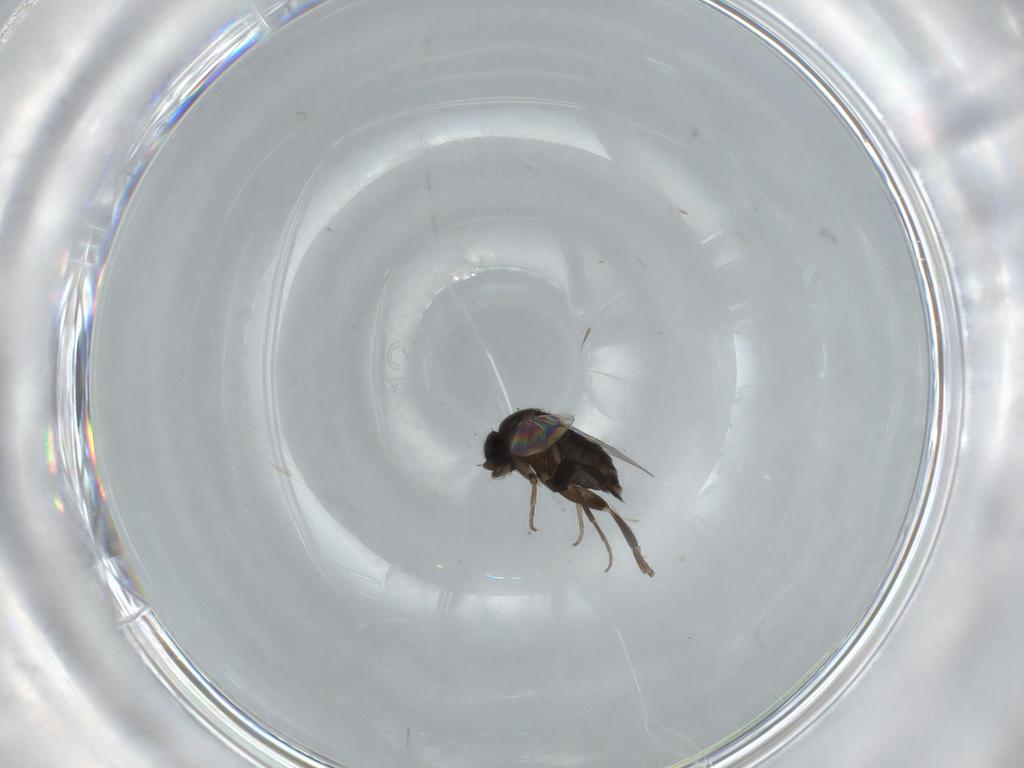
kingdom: Animalia
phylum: Arthropoda
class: Insecta
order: Diptera
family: Phoridae
